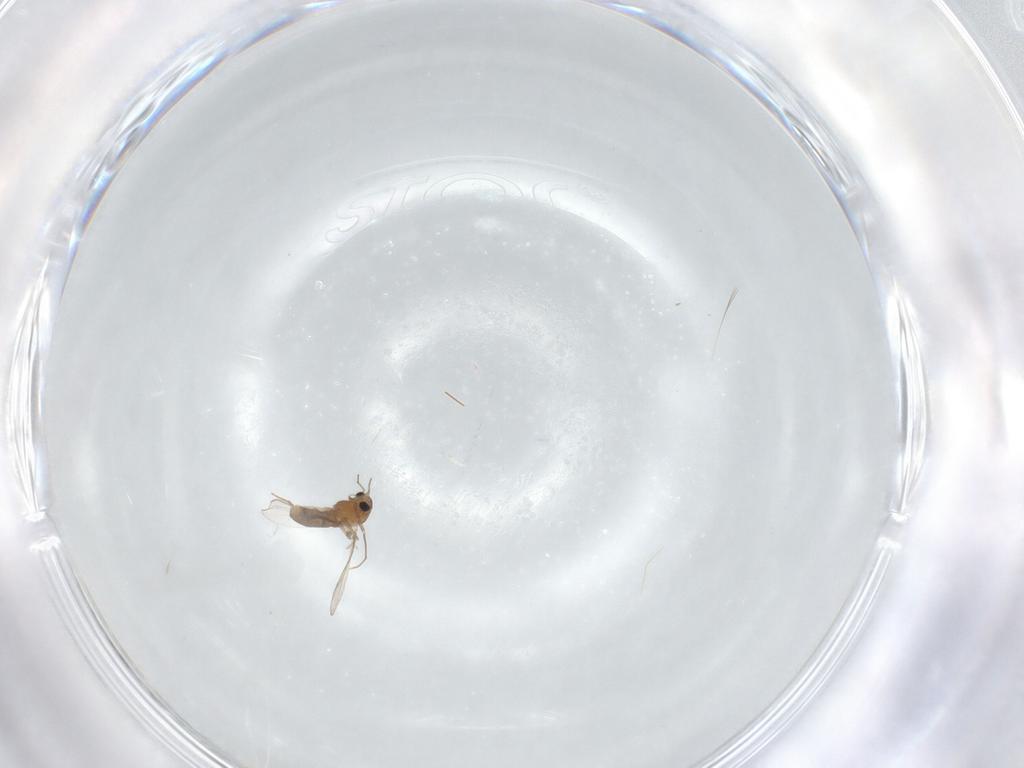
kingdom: Animalia
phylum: Arthropoda
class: Insecta
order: Diptera
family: Chironomidae
